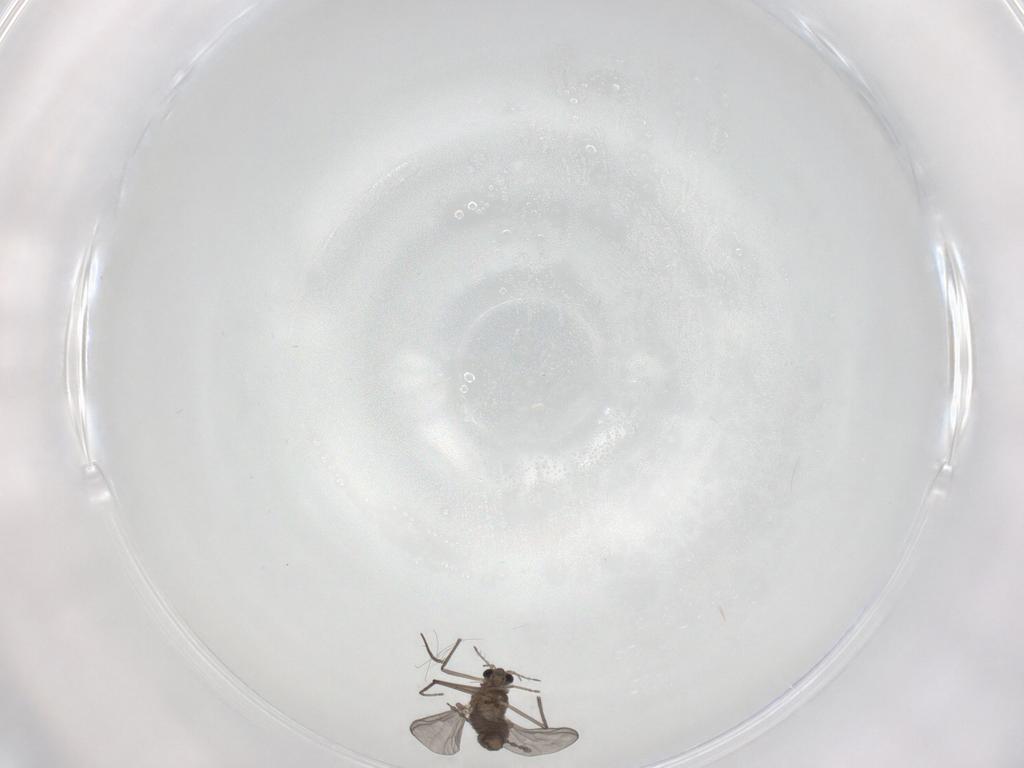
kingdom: Animalia
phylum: Arthropoda
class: Insecta
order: Diptera
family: Chironomidae
